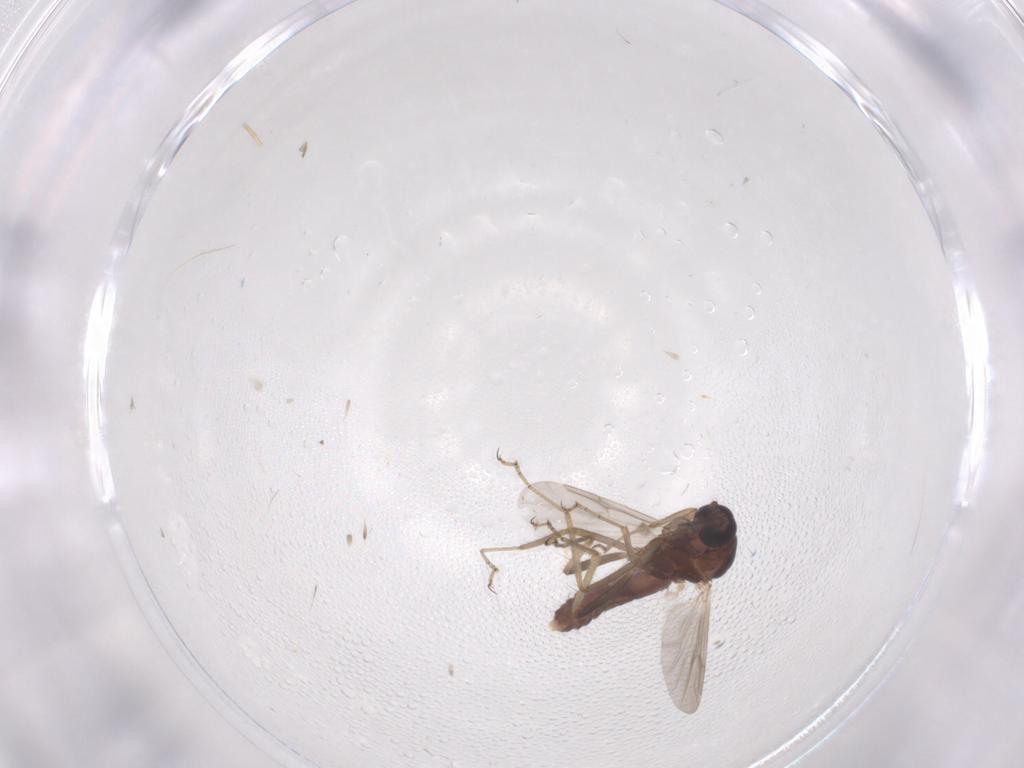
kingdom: Animalia
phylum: Arthropoda
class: Insecta
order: Diptera
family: Ceratopogonidae
